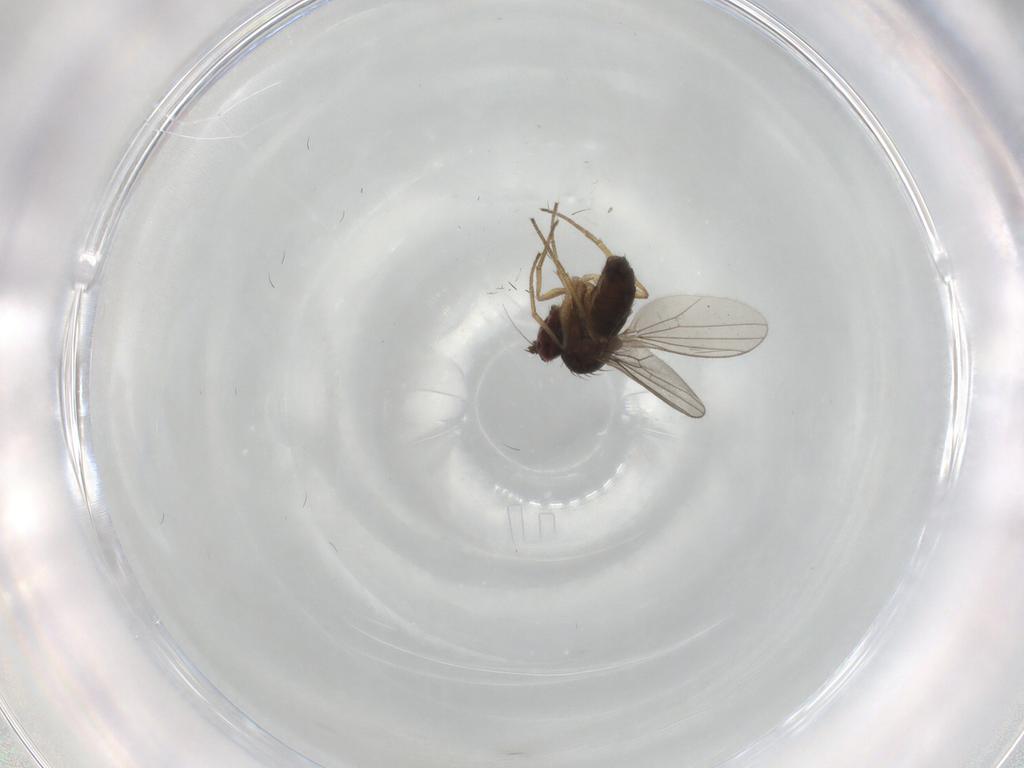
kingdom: Animalia
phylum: Arthropoda
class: Insecta
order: Diptera
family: Dolichopodidae
